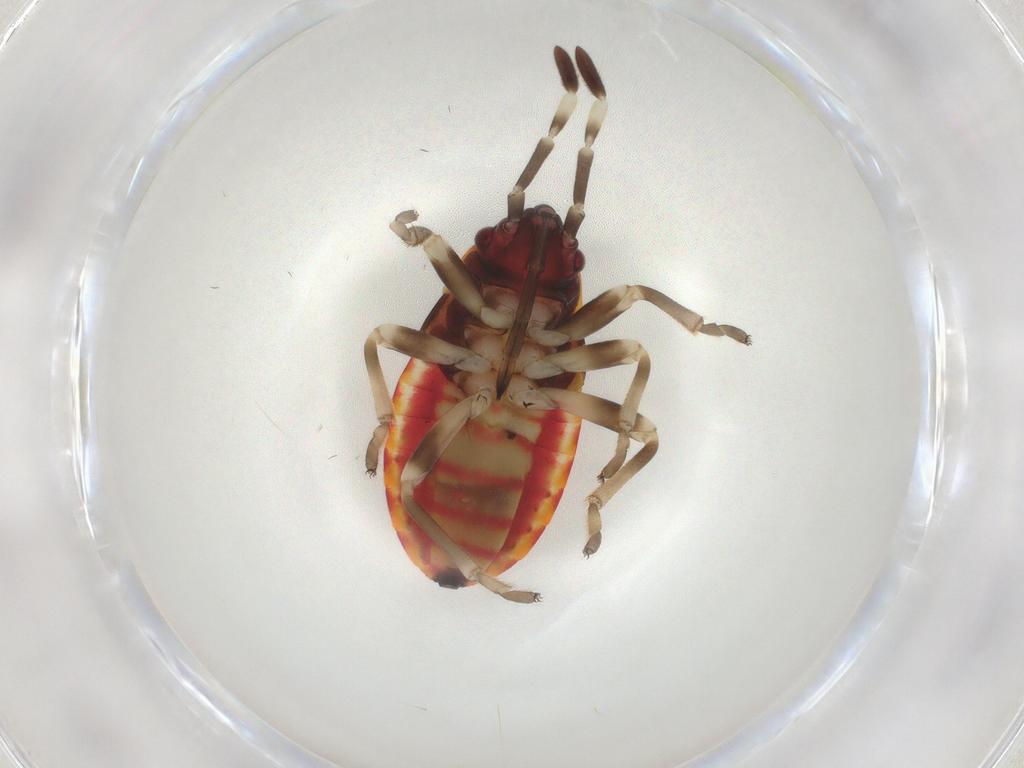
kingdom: Animalia
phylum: Arthropoda
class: Insecta
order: Hemiptera
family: Lygaeidae
